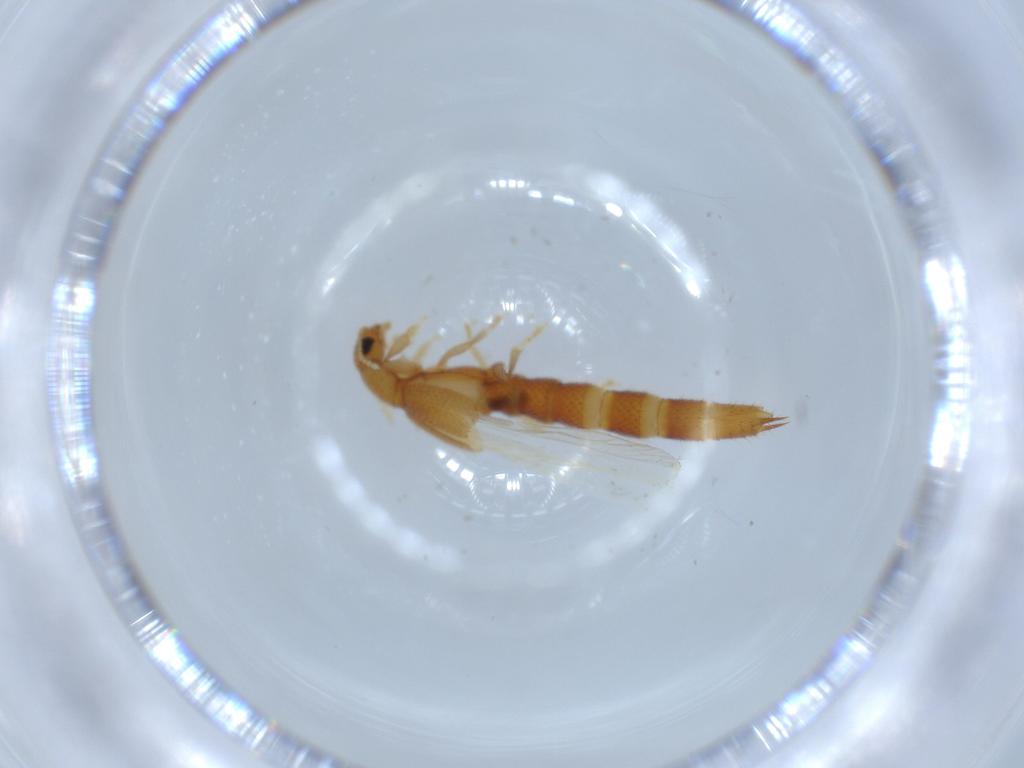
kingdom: Animalia
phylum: Arthropoda
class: Insecta
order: Coleoptera
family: Staphylinidae
